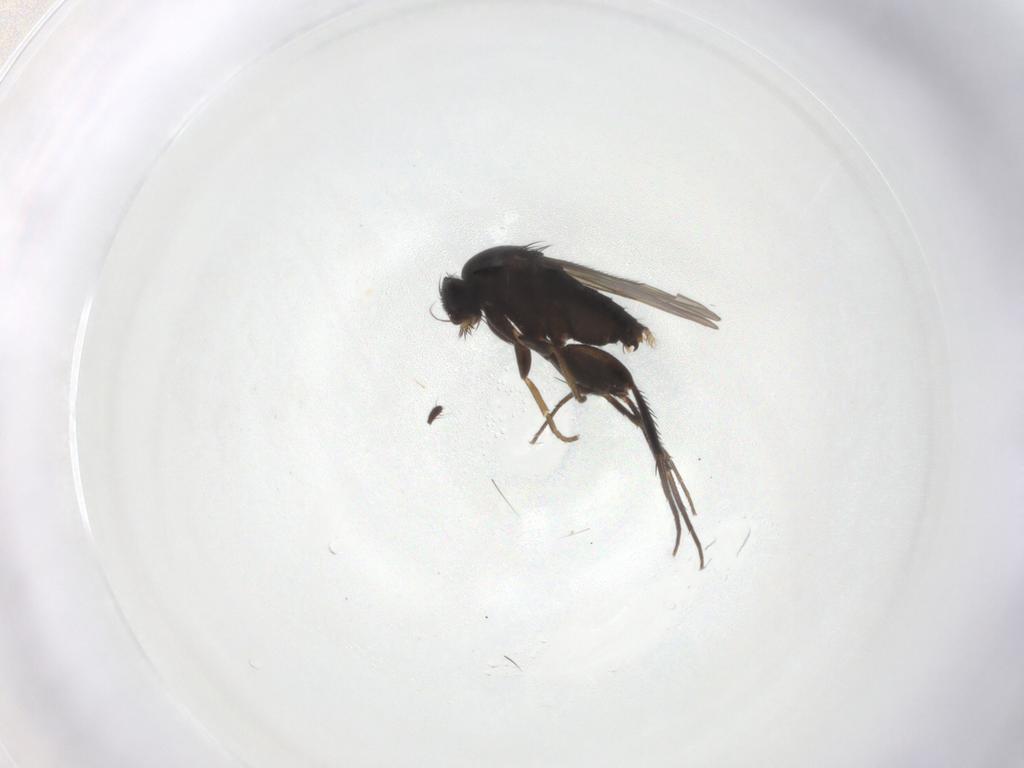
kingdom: Animalia
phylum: Arthropoda
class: Insecta
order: Diptera
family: Phoridae
